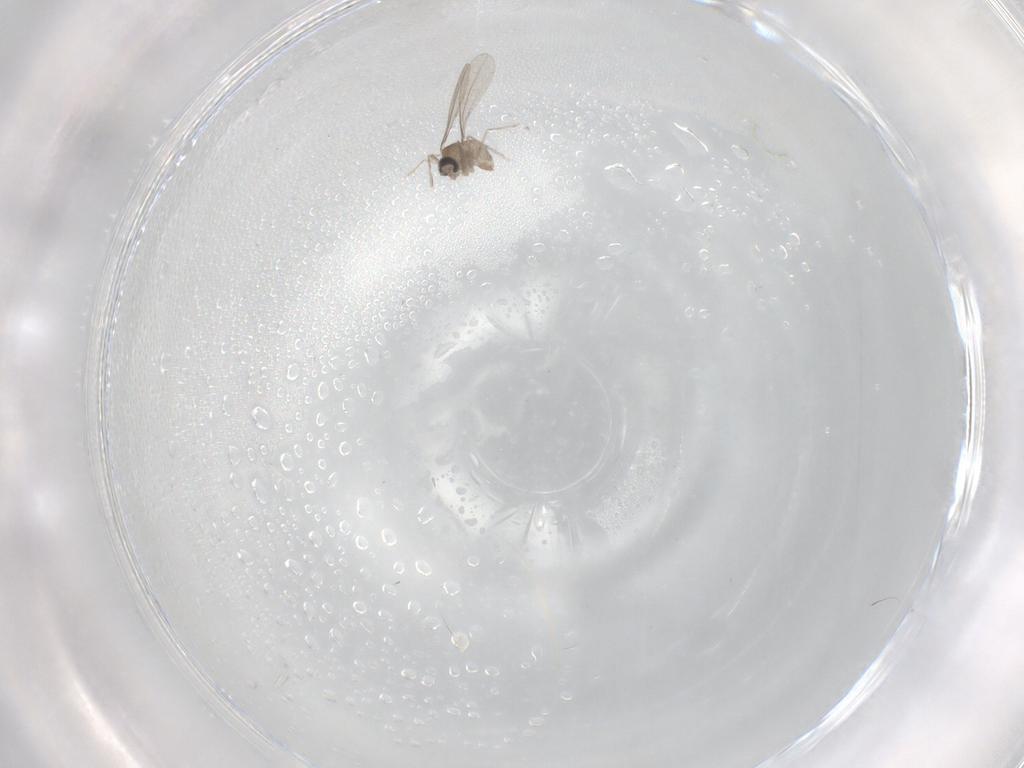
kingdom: Animalia
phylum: Arthropoda
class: Insecta
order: Diptera
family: Cecidomyiidae
